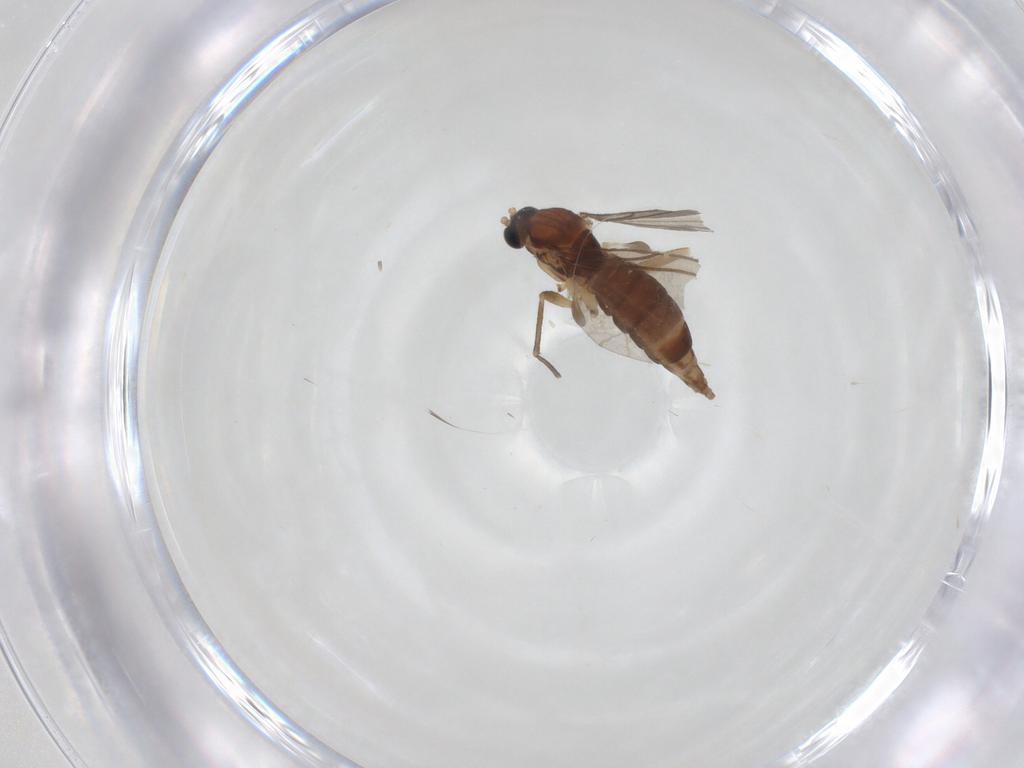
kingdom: Animalia
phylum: Arthropoda
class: Insecta
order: Diptera
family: Sciaridae
